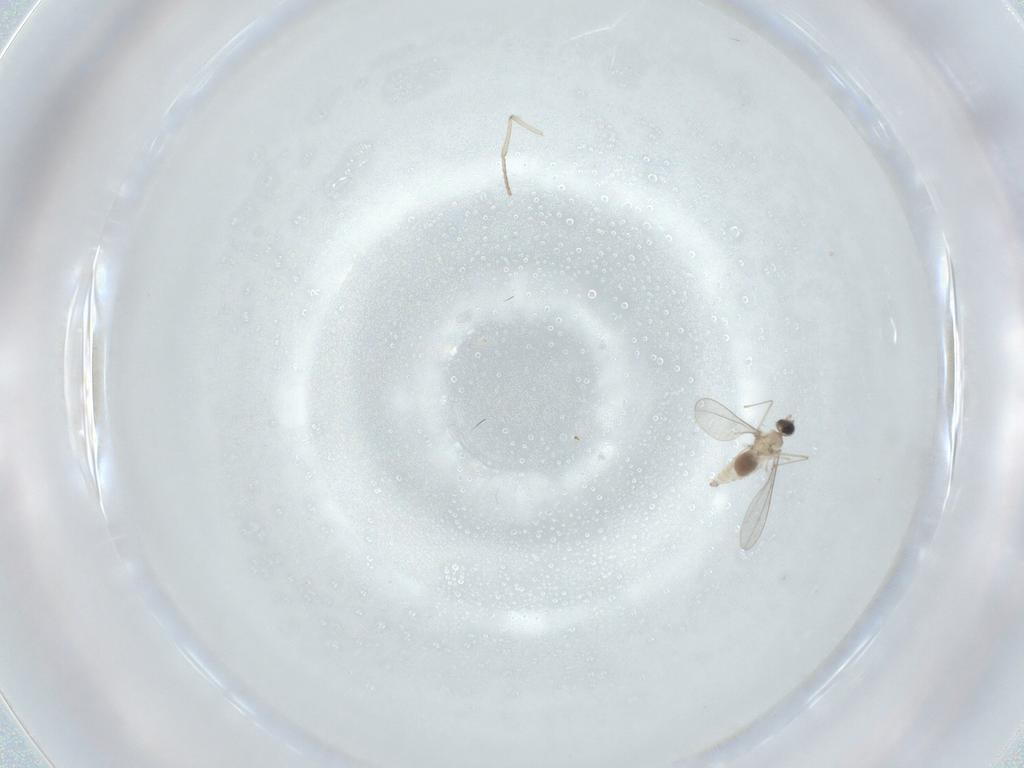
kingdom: Animalia
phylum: Arthropoda
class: Insecta
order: Diptera
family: Cecidomyiidae
